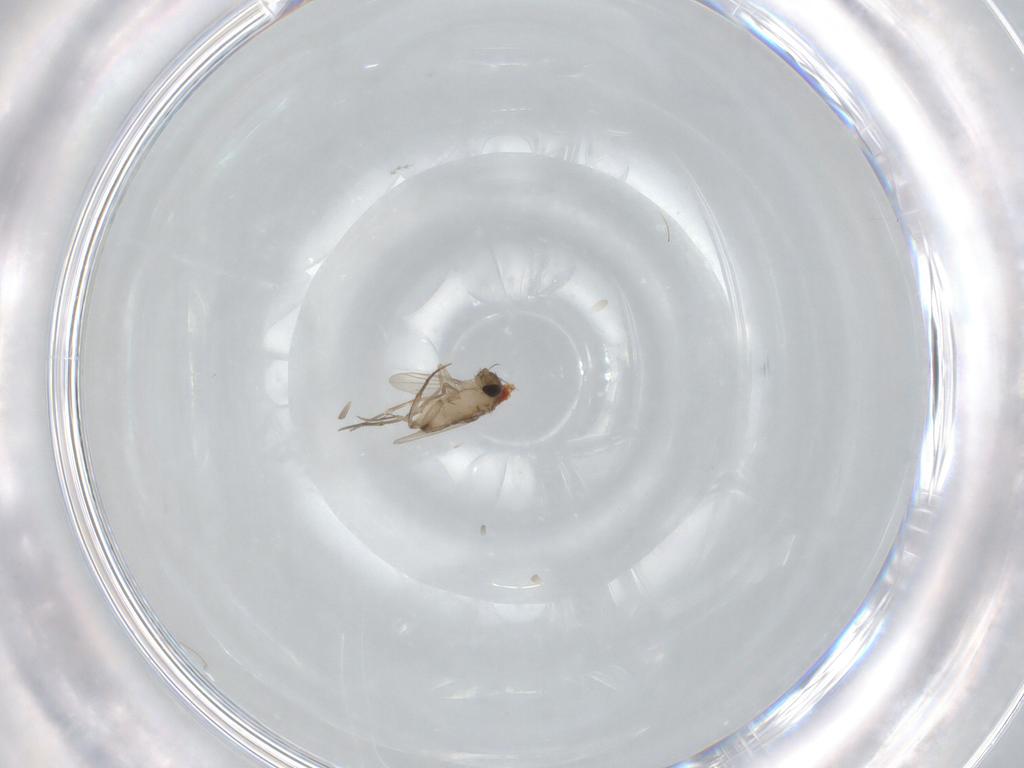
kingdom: Animalia
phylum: Arthropoda
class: Insecta
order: Diptera
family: Phoridae
